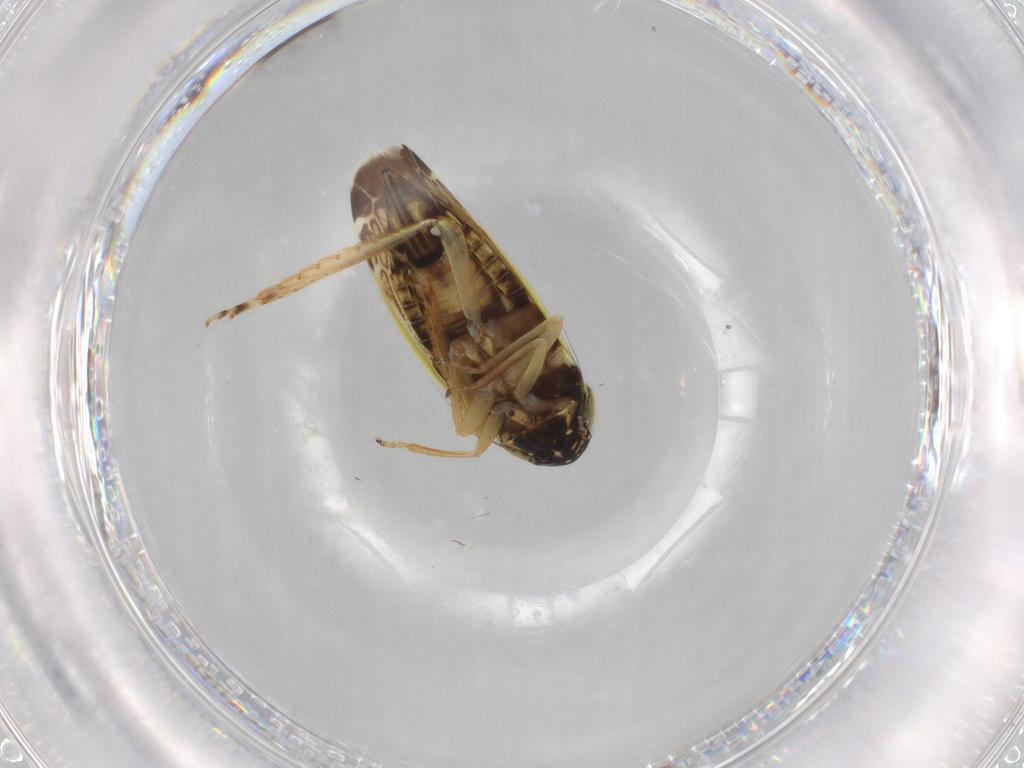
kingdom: Animalia
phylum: Arthropoda
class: Insecta
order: Hemiptera
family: Cicadellidae
